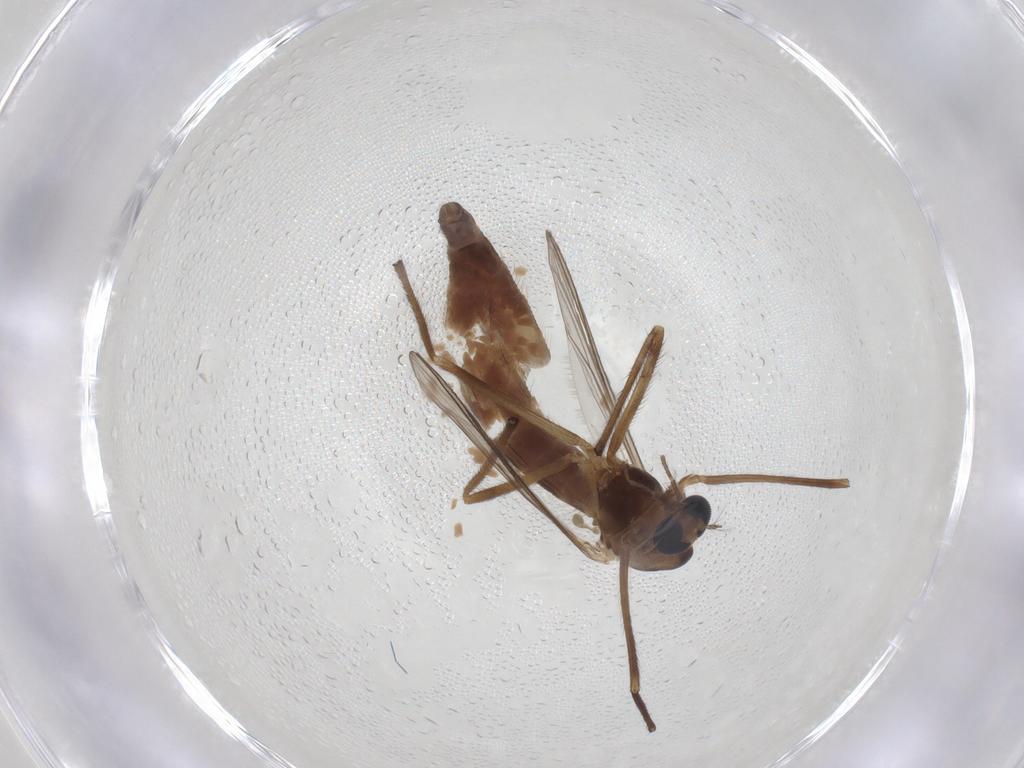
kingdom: Animalia
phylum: Arthropoda
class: Insecta
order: Diptera
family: Chironomidae
